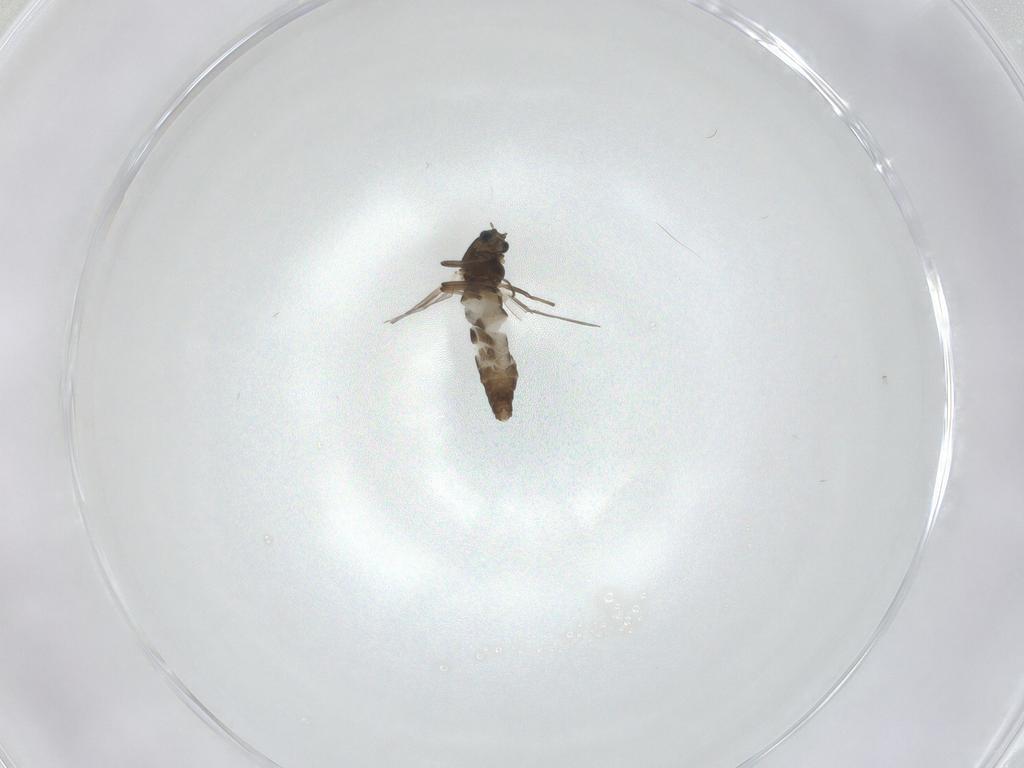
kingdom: Animalia
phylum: Arthropoda
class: Insecta
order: Diptera
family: Chironomidae
